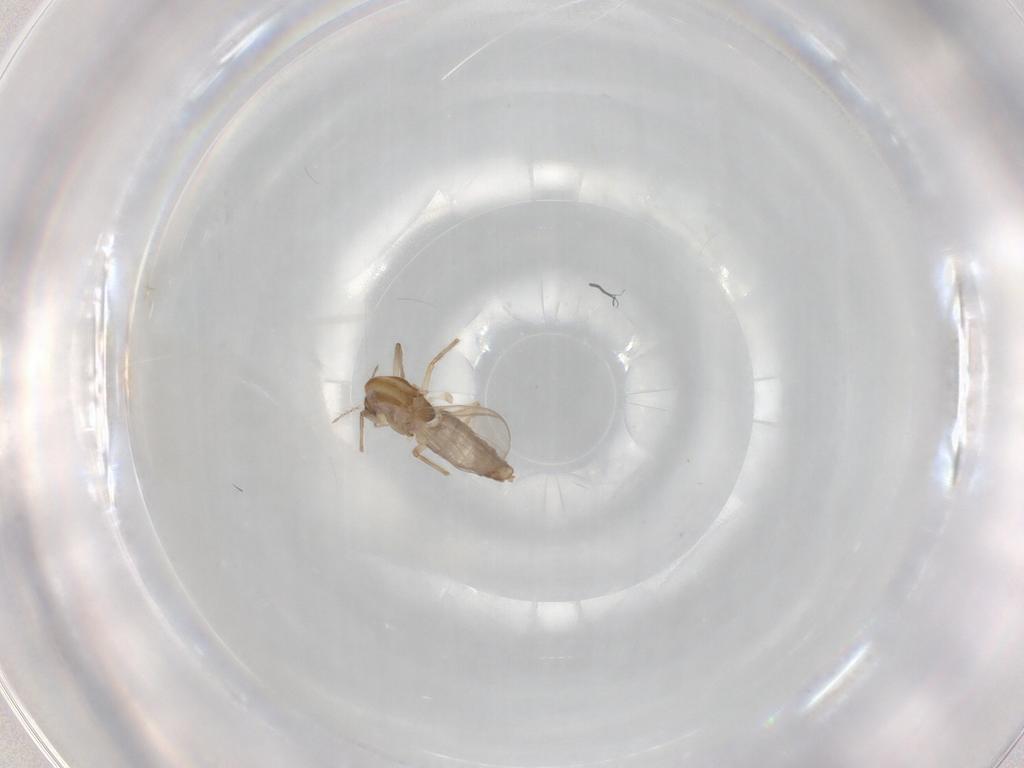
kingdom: Animalia
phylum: Arthropoda
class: Insecta
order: Diptera
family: Chironomidae
